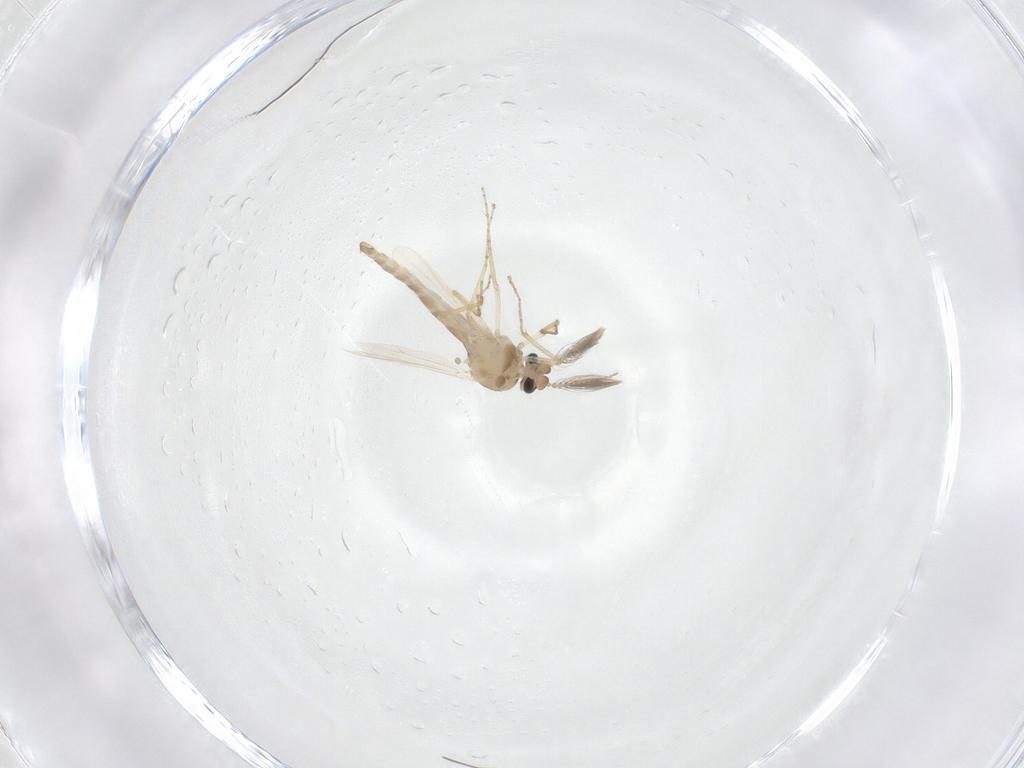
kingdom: Animalia
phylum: Arthropoda
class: Insecta
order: Diptera
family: Ceratopogonidae
